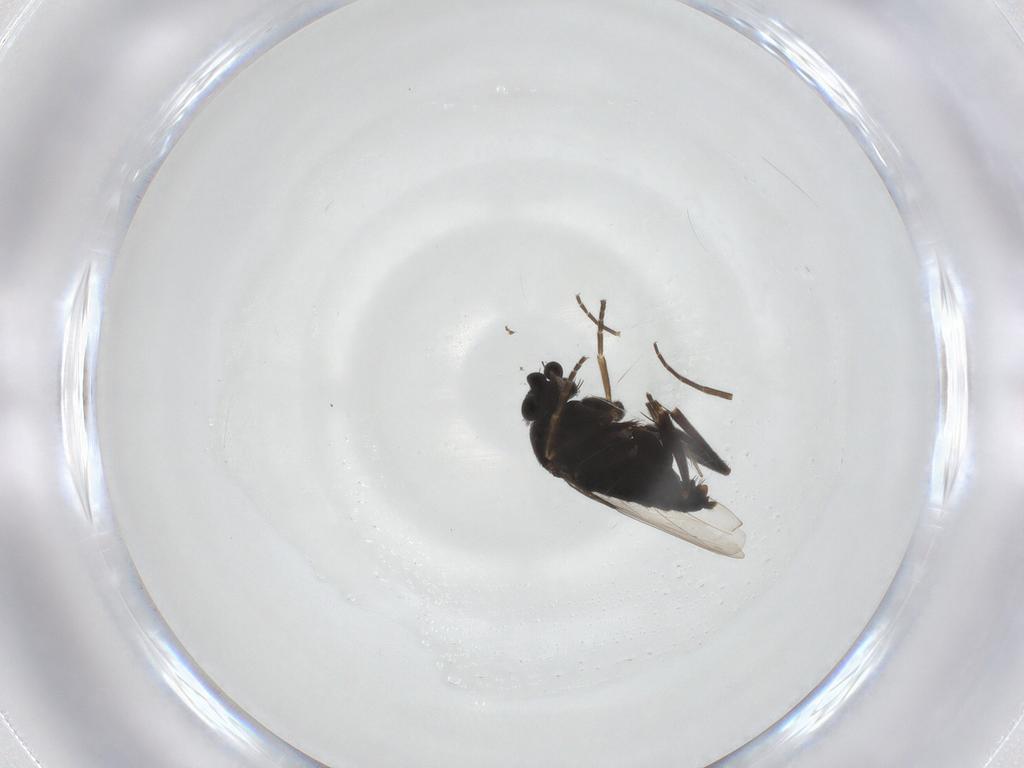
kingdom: Animalia
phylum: Arthropoda
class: Insecta
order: Diptera
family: Phoridae
